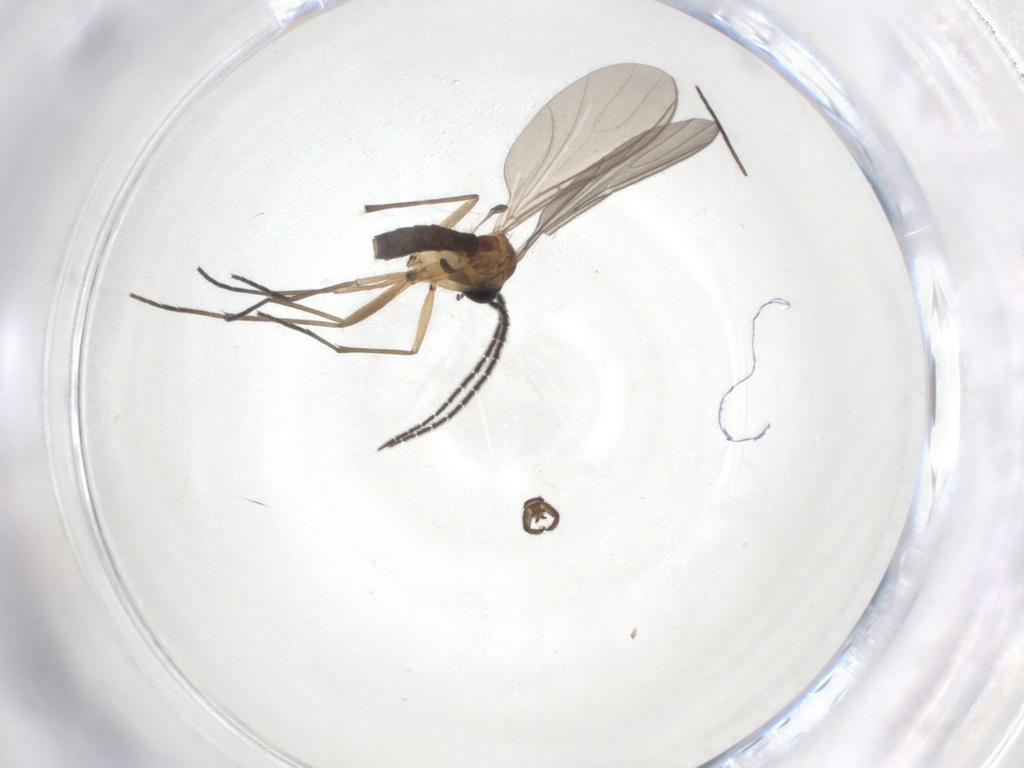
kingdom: Animalia
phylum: Arthropoda
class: Insecta
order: Diptera
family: Sciaridae
